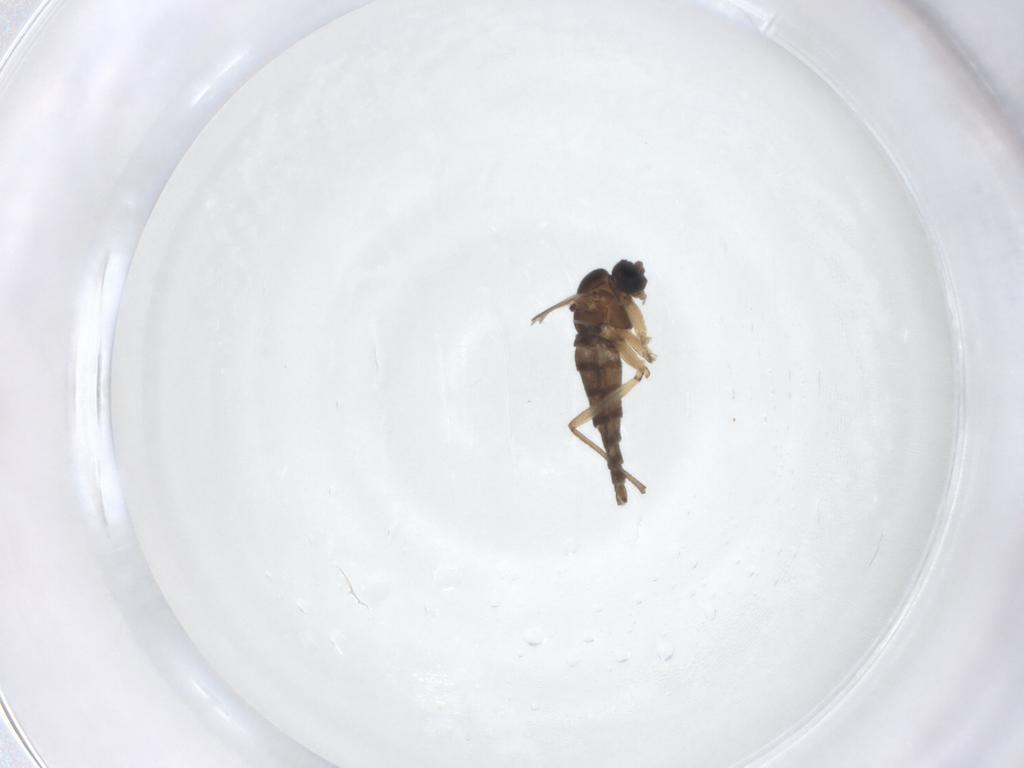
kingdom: Animalia
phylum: Arthropoda
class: Insecta
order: Diptera
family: Sciaridae
